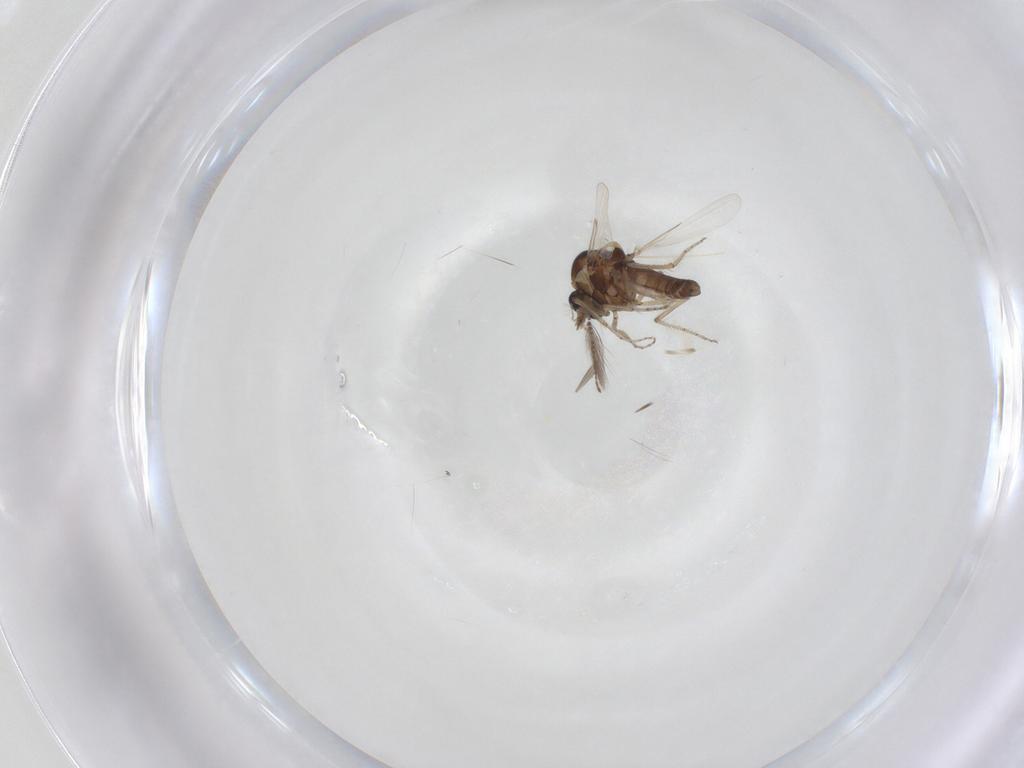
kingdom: Animalia
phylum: Arthropoda
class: Insecta
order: Diptera
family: Ceratopogonidae
